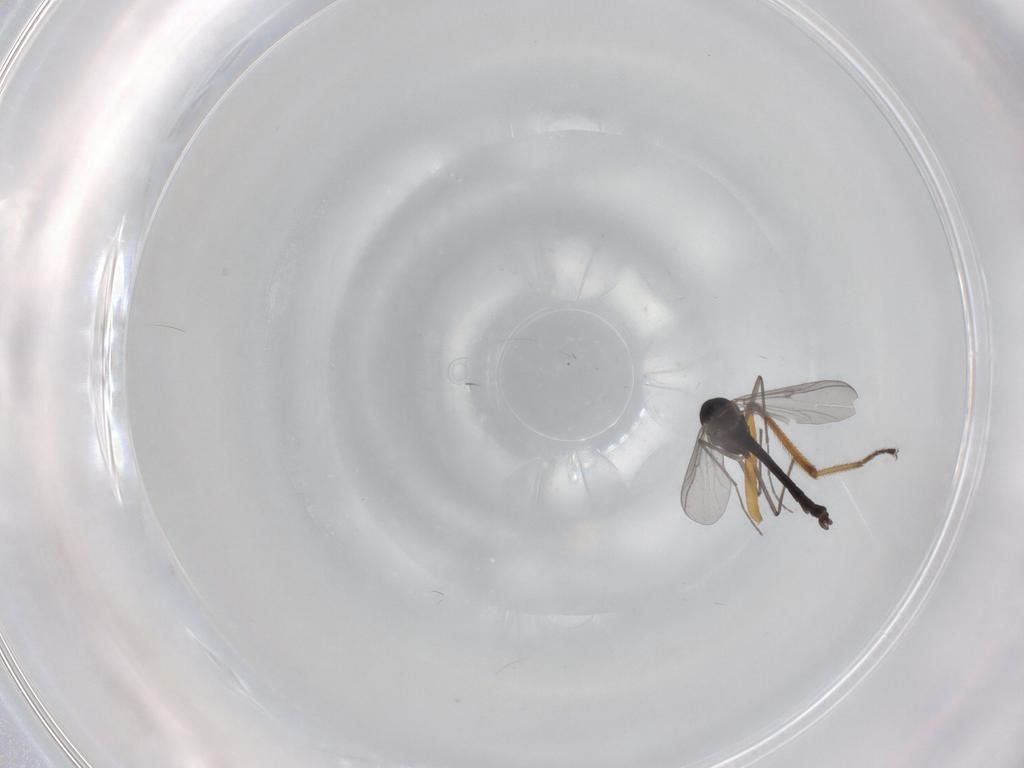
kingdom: Animalia
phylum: Arthropoda
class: Insecta
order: Diptera
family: Chironomidae
